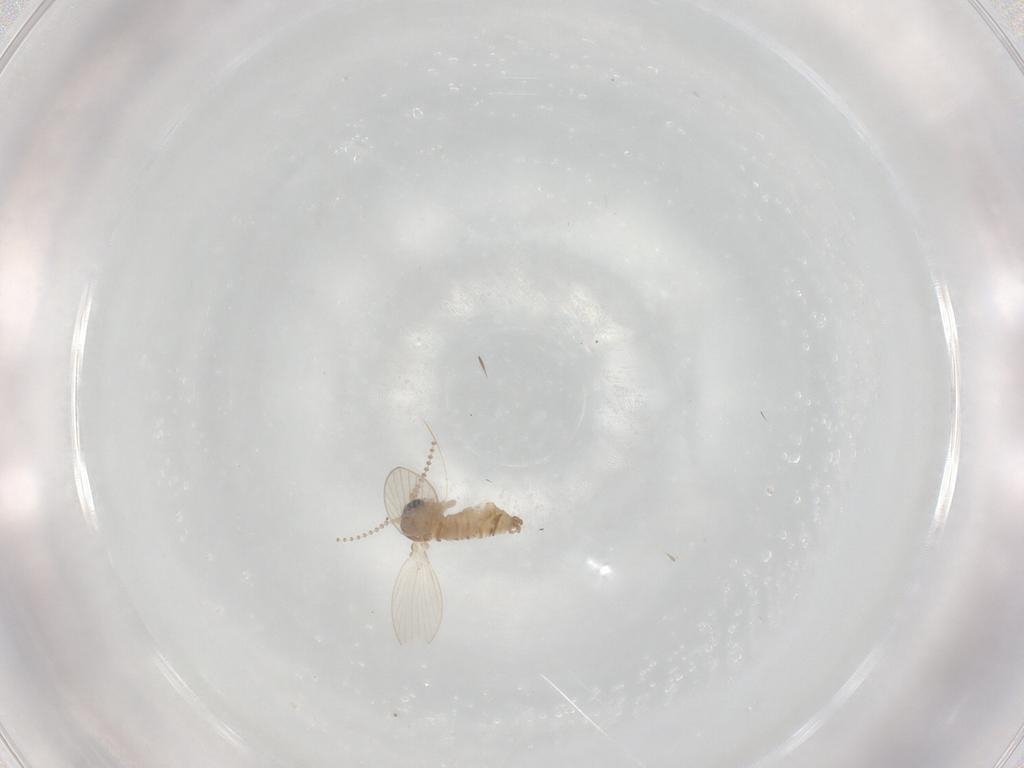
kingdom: Animalia
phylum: Arthropoda
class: Insecta
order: Diptera
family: Psychodidae
